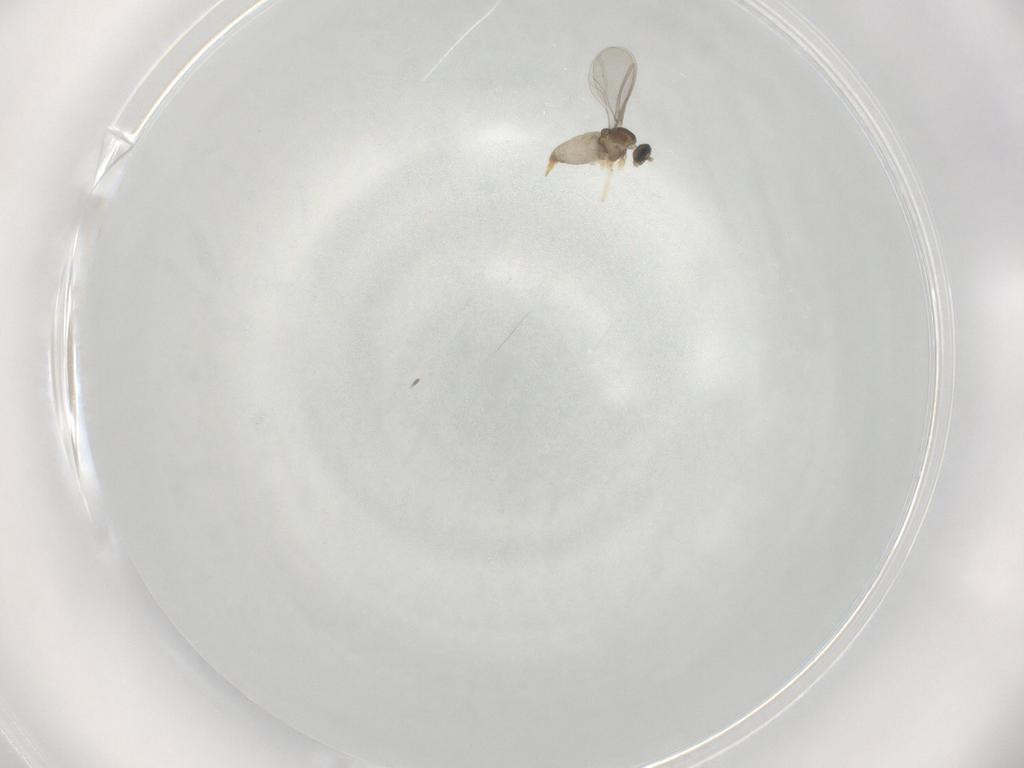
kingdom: Animalia
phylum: Arthropoda
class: Insecta
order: Diptera
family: Cecidomyiidae
